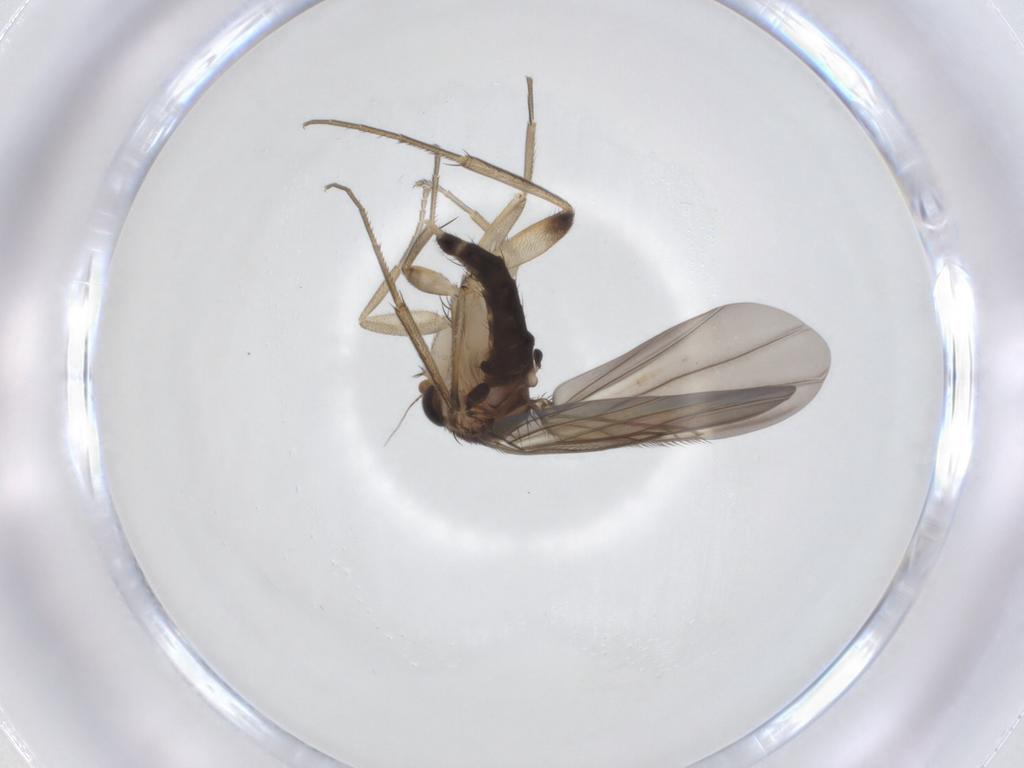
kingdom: Animalia
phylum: Arthropoda
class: Insecta
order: Diptera
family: Phoridae
